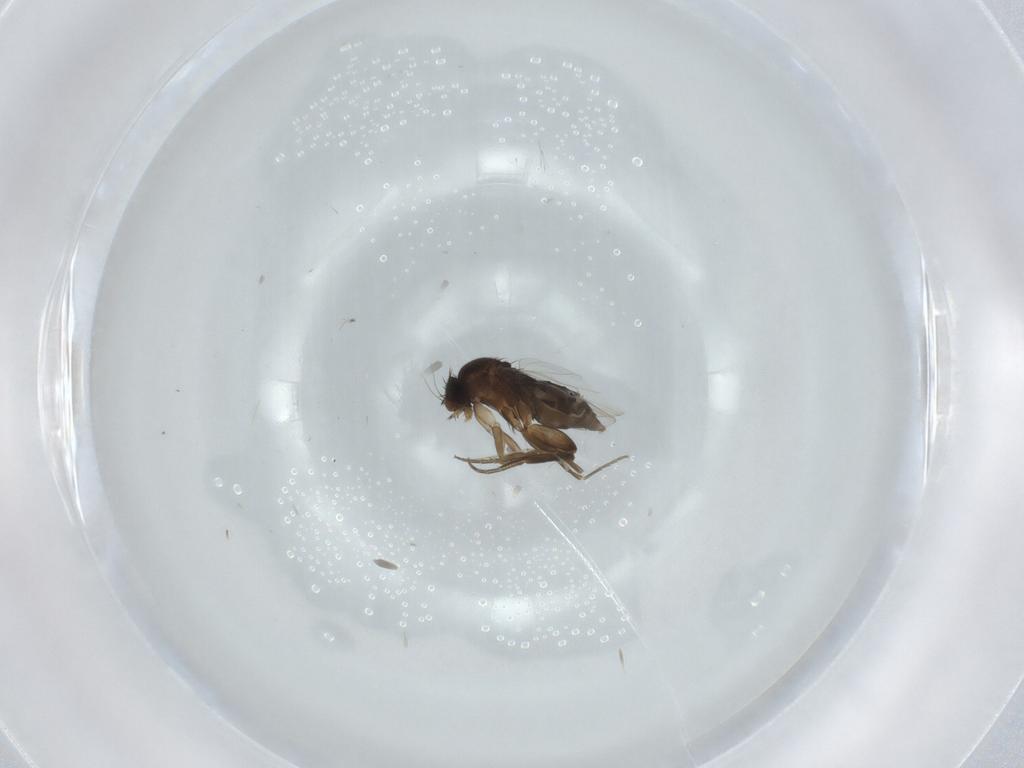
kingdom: Animalia
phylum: Arthropoda
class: Insecta
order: Diptera
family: Phoridae
